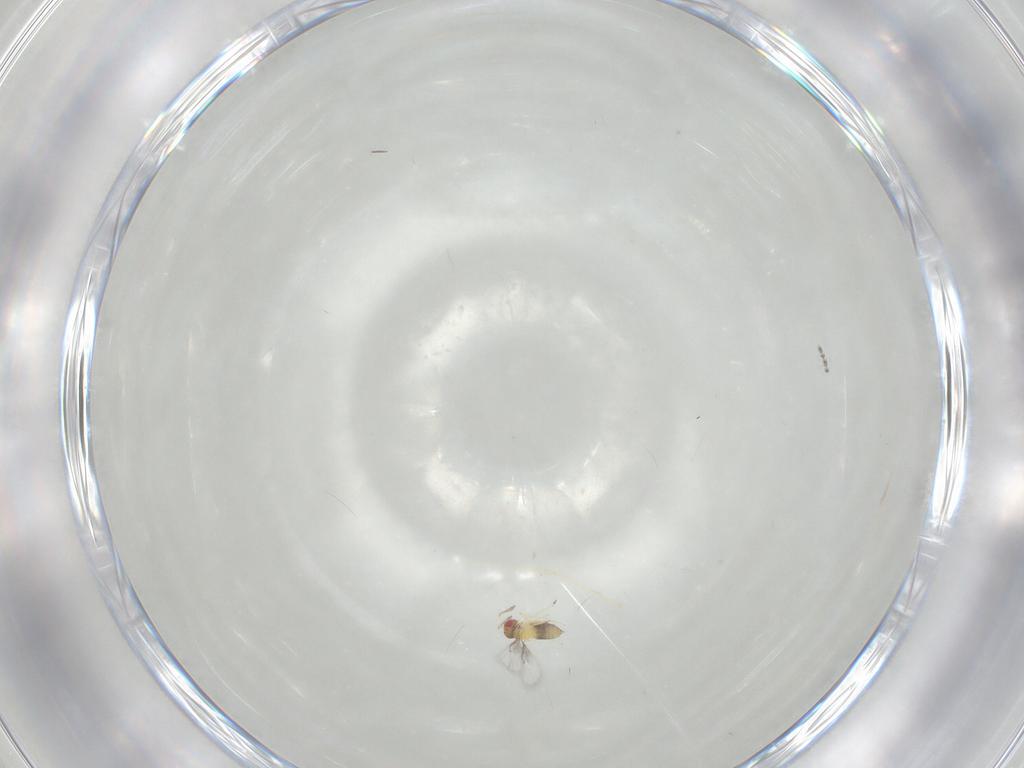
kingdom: Animalia
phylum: Arthropoda
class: Insecta
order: Hymenoptera
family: Trichogrammatidae
